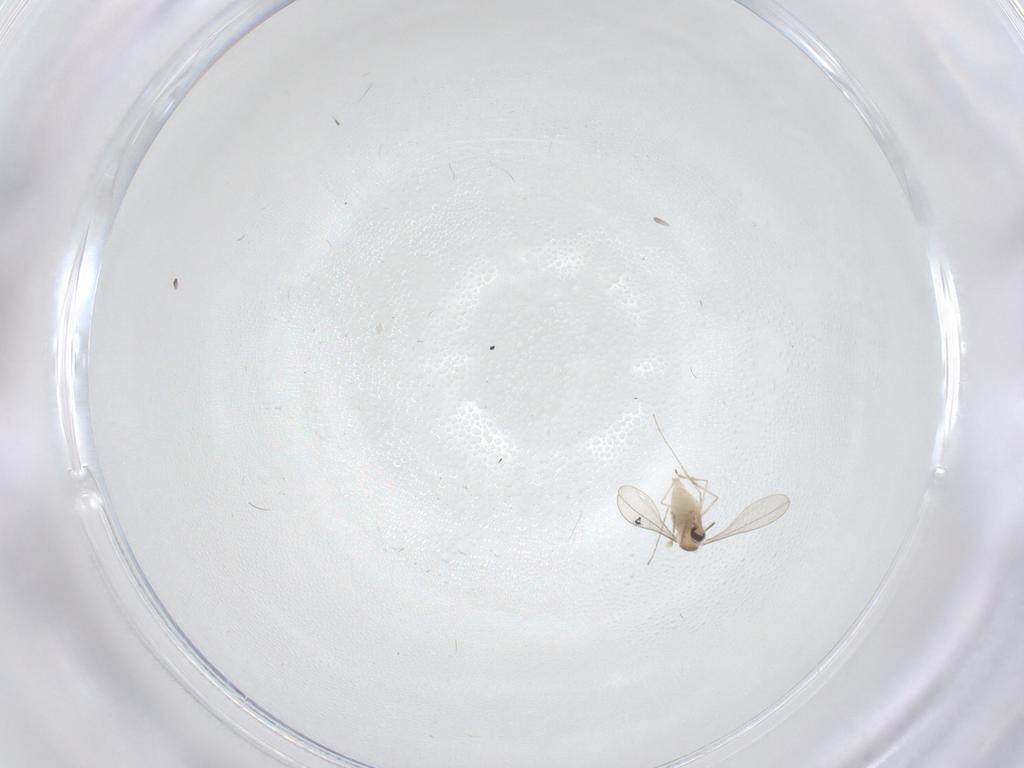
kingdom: Animalia
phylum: Arthropoda
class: Insecta
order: Diptera
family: Cecidomyiidae
